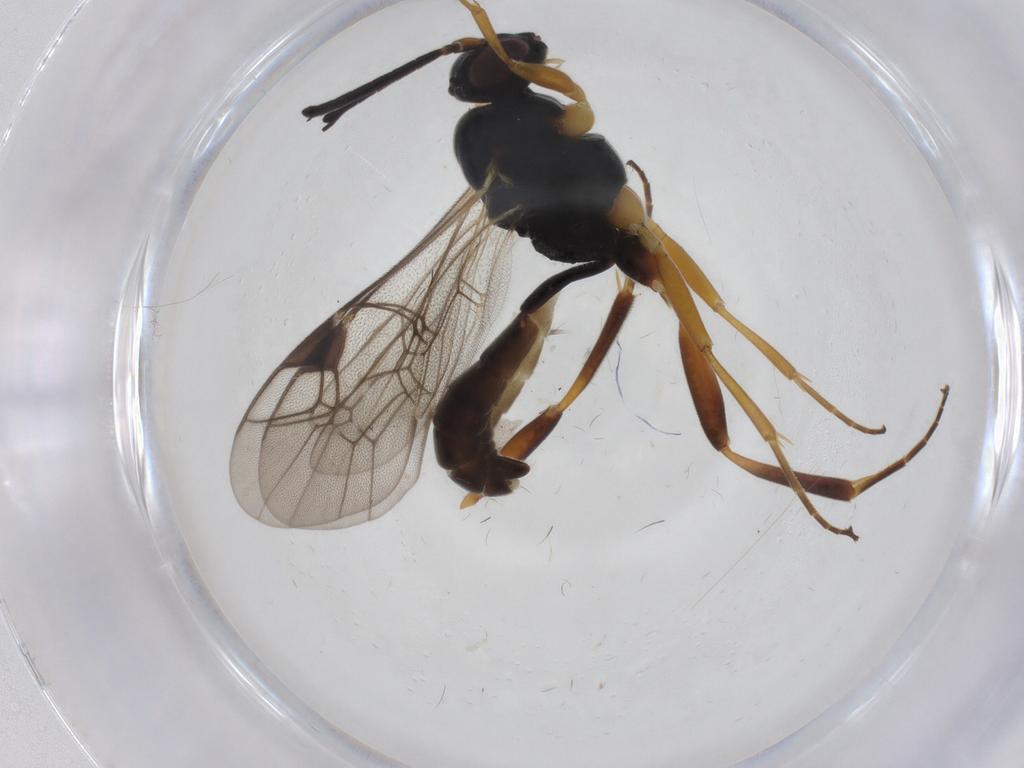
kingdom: Animalia
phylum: Arthropoda
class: Insecta
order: Hymenoptera
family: Ichneumonidae
